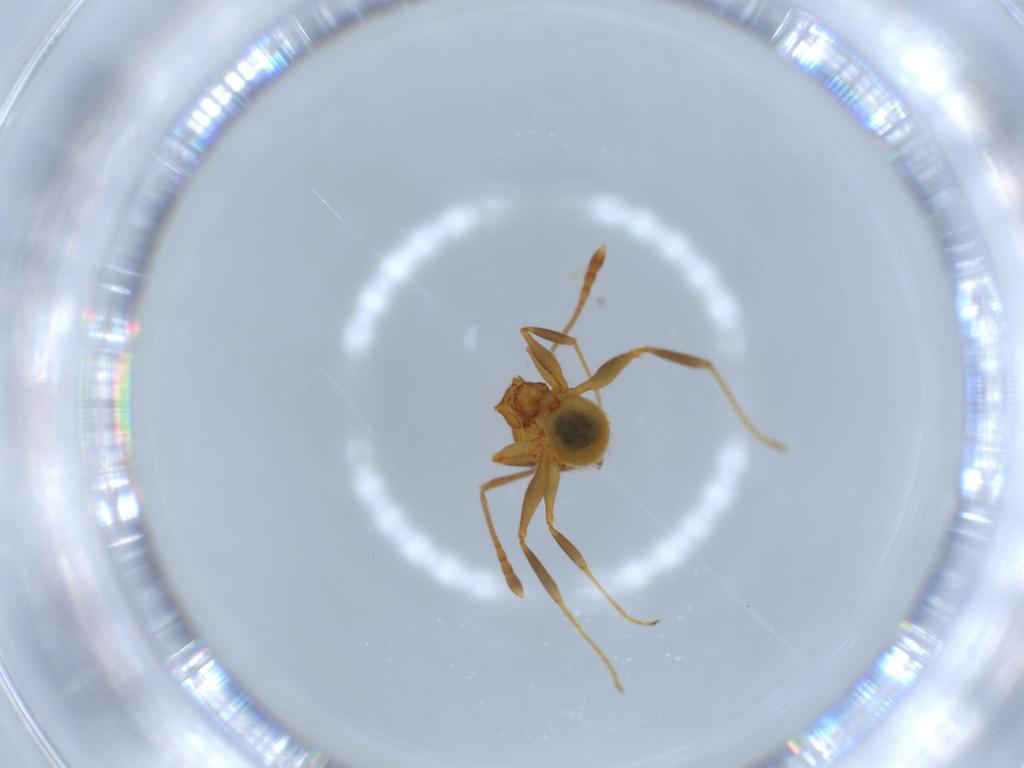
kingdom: Animalia
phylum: Arthropoda
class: Insecta
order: Hymenoptera
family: Formicidae
